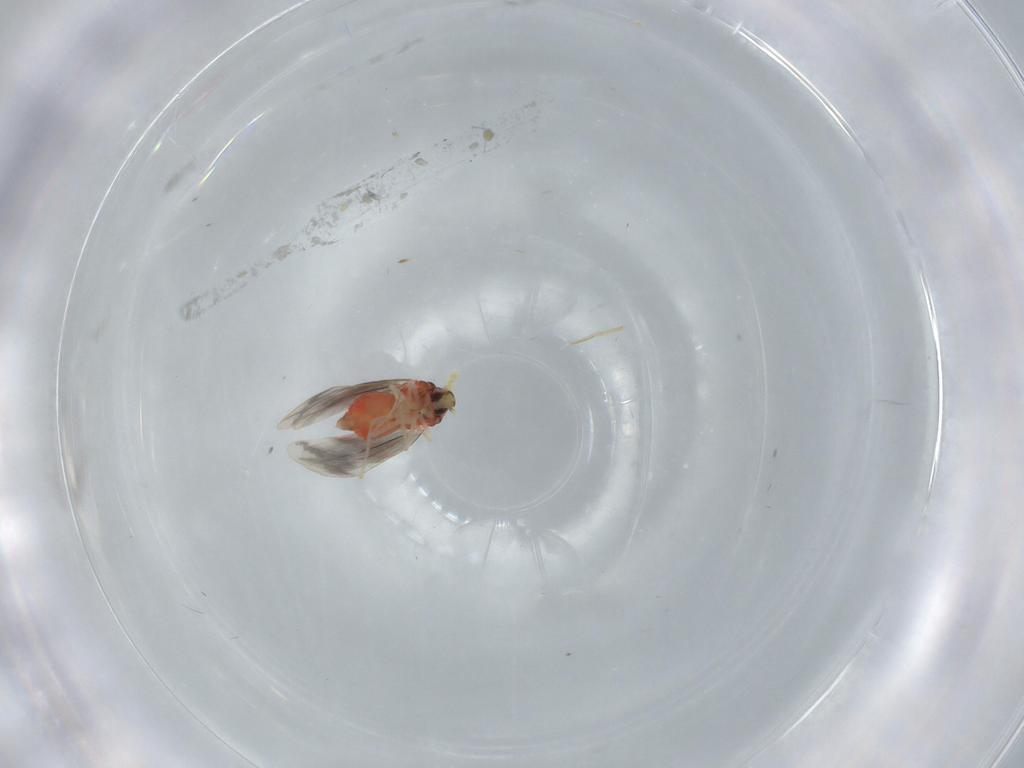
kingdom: Animalia
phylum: Arthropoda
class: Insecta
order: Hemiptera
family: Aleyrodidae
